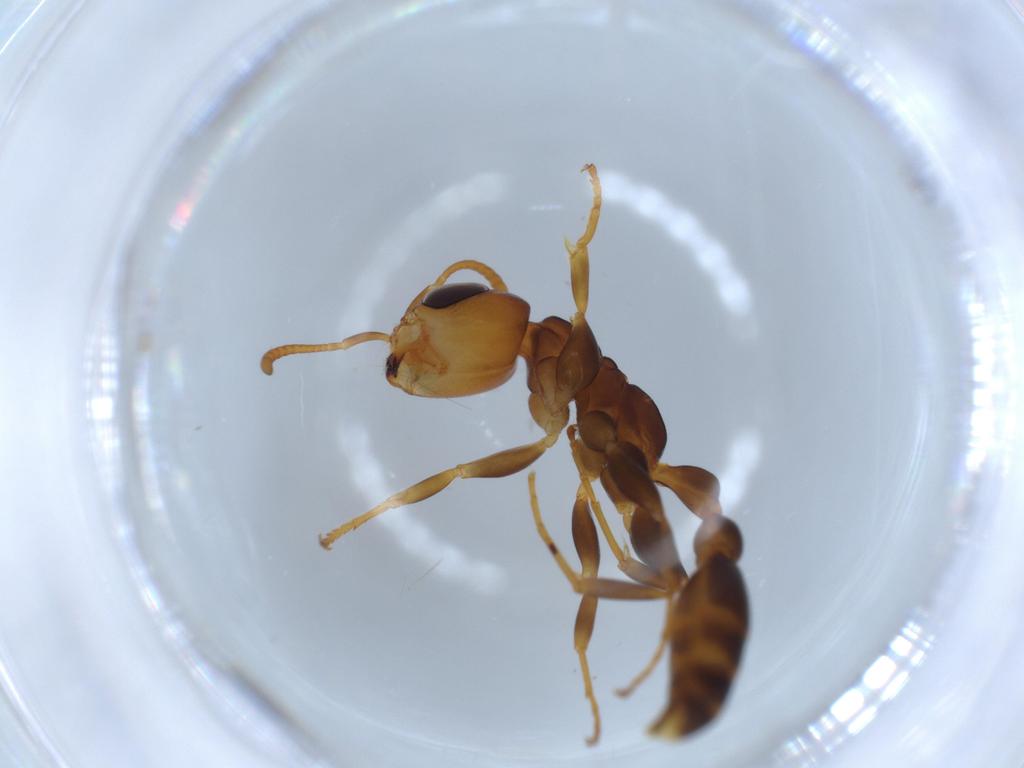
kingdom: Animalia
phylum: Arthropoda
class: Insecta
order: Hymenoptera
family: Formicidae
